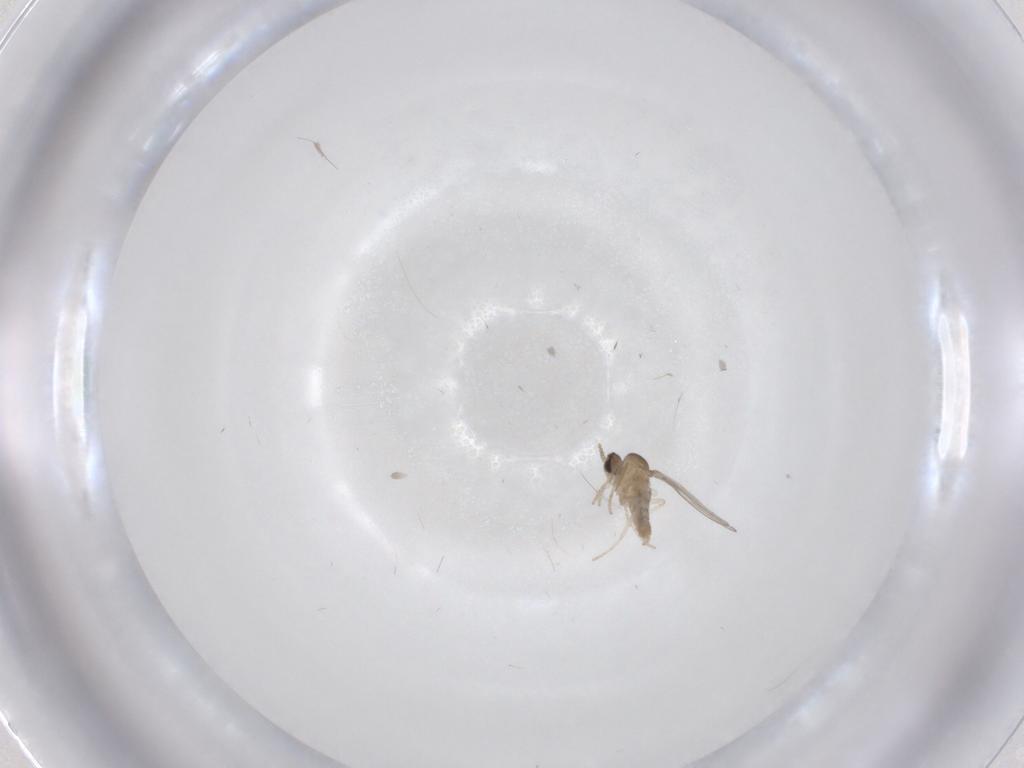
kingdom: Animalia
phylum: Arthropoda
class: Insecta
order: Diptera
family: Cecidomyiidae
